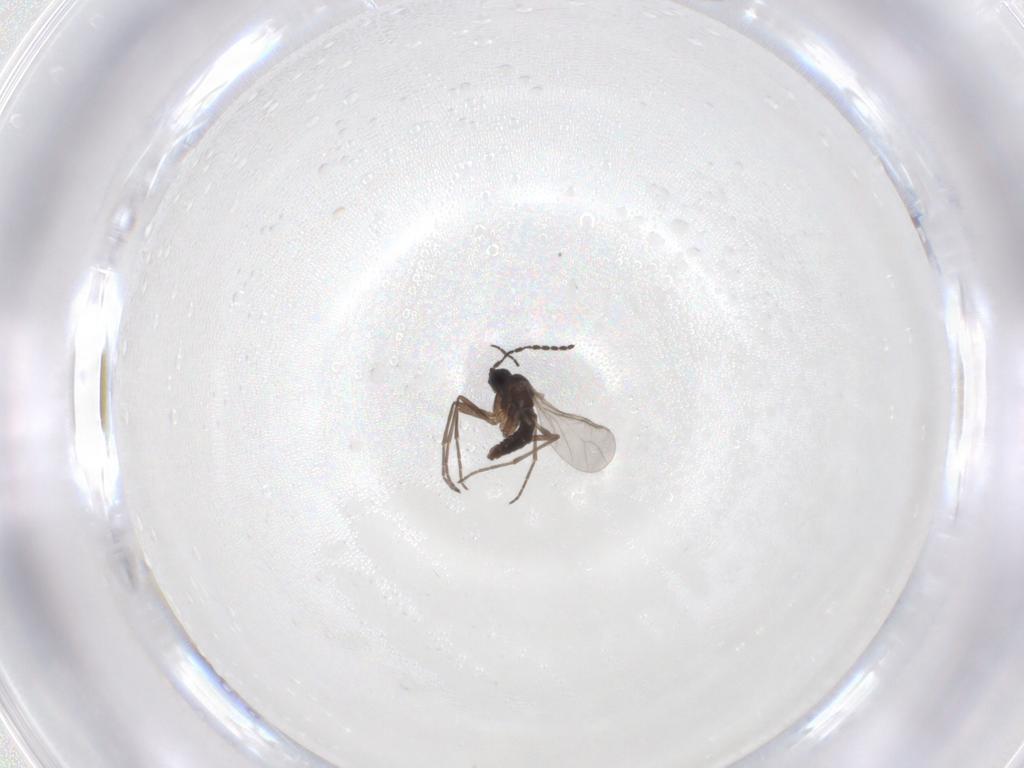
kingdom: Animalia
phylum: Arthropoda
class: Insecta
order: Diptera
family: Sciaridae
